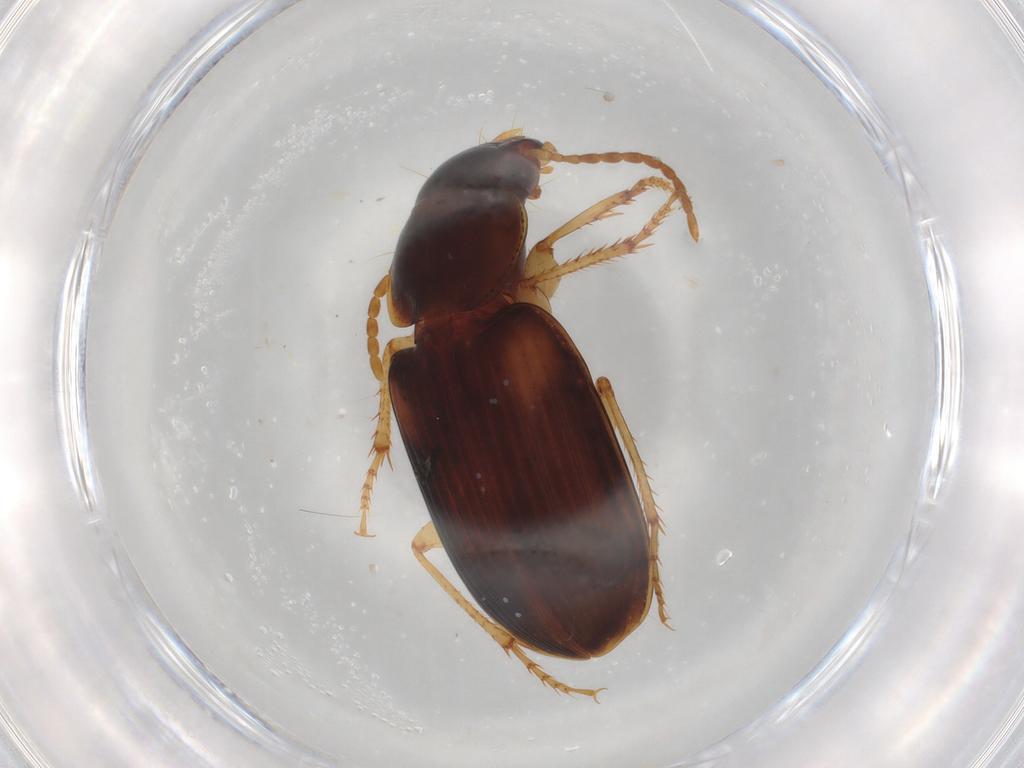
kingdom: Animalia
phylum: Arthropoda
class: Insecta
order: Coleoptera
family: Carabidae
